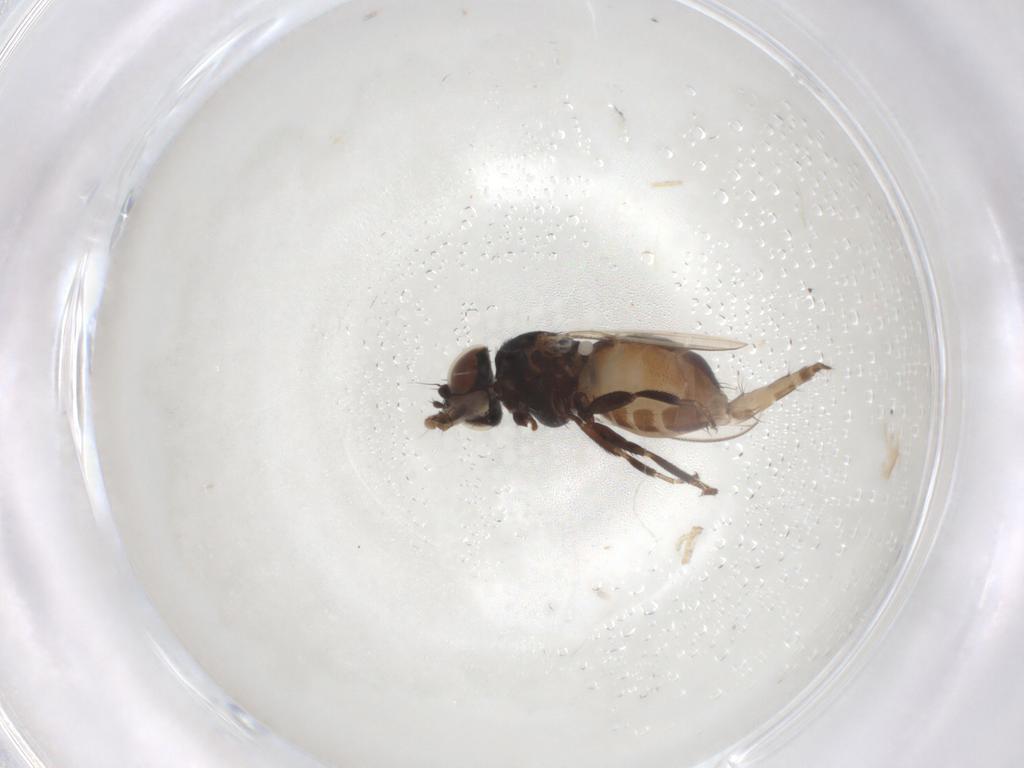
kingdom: Animalia
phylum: Arthropoda
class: Insecta
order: Diptera
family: Milichiidae
